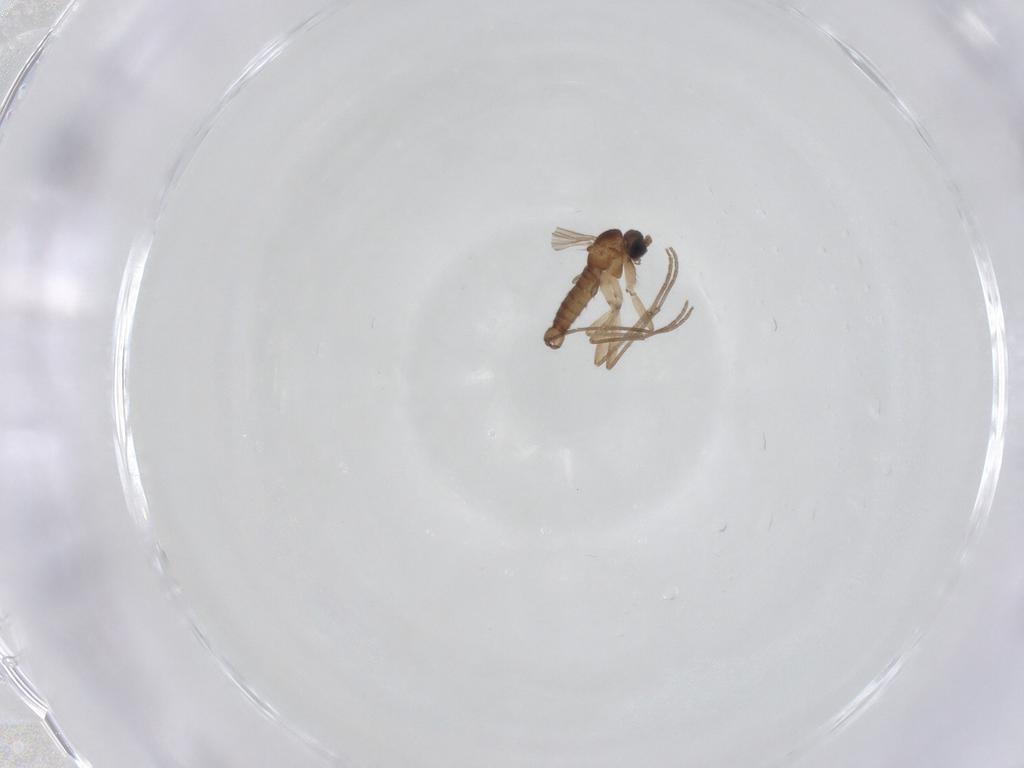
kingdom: Animalia
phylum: Arthropoda
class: Insecta
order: Diptera
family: Sciaridae
